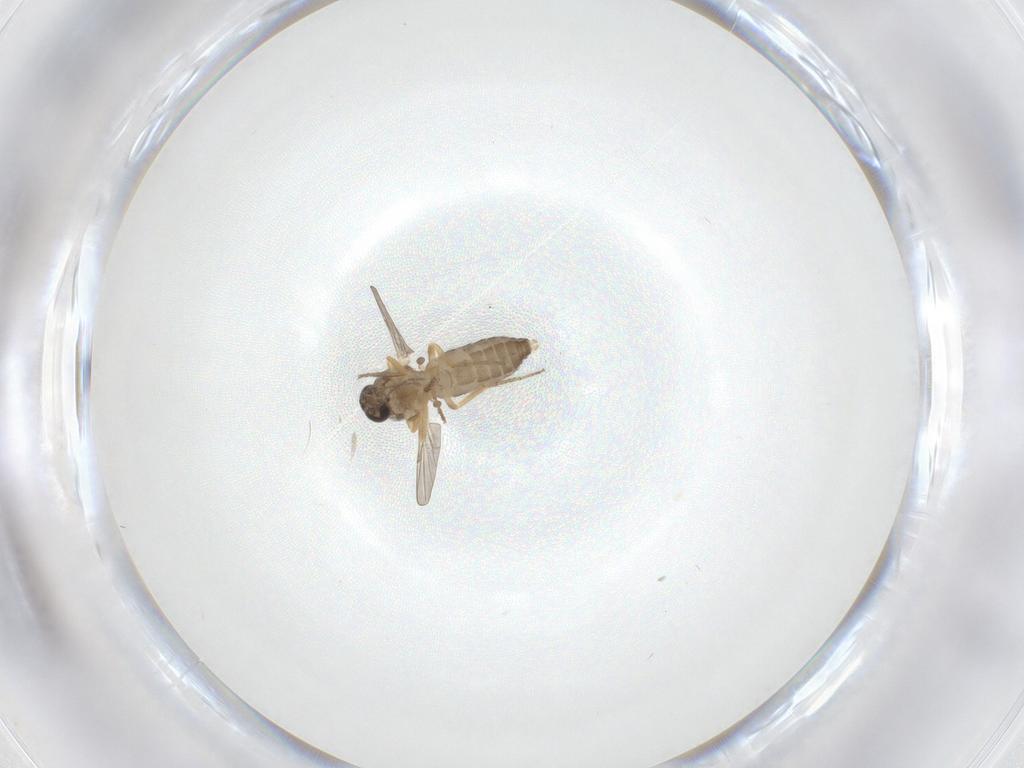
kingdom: Animalia
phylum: Arthropoda
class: Insecta
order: Diptera
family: Ceratopogonidae
